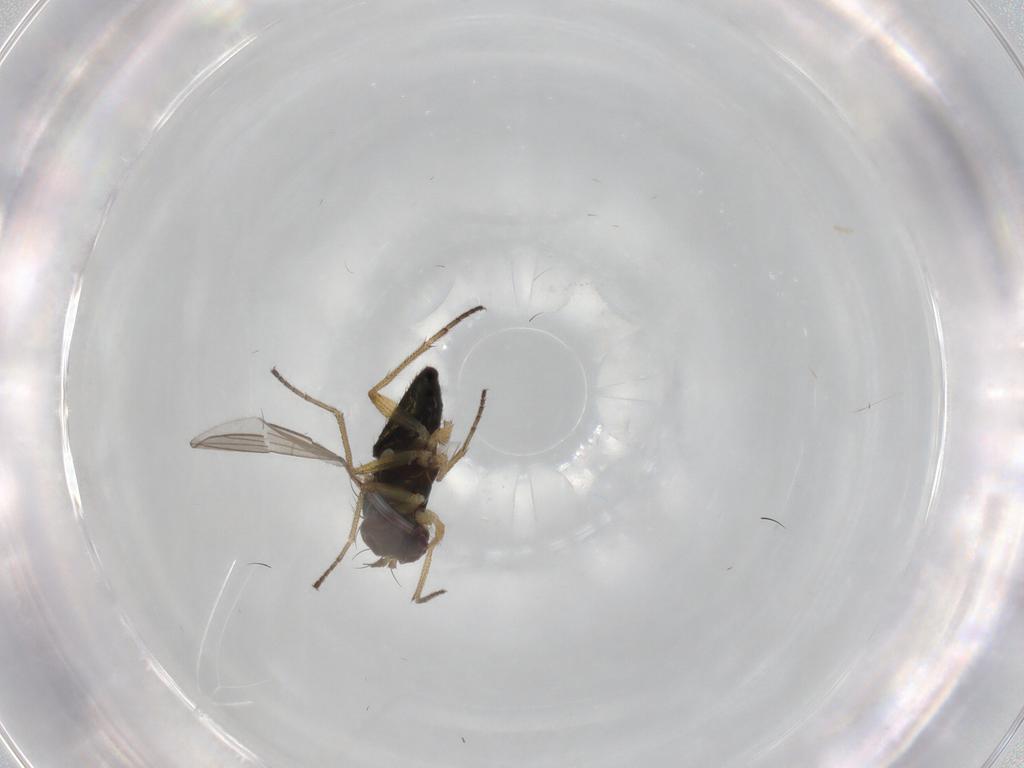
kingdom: Animalia
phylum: Arthropoda
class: Insecta
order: Diptera
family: Dolichopodidae
